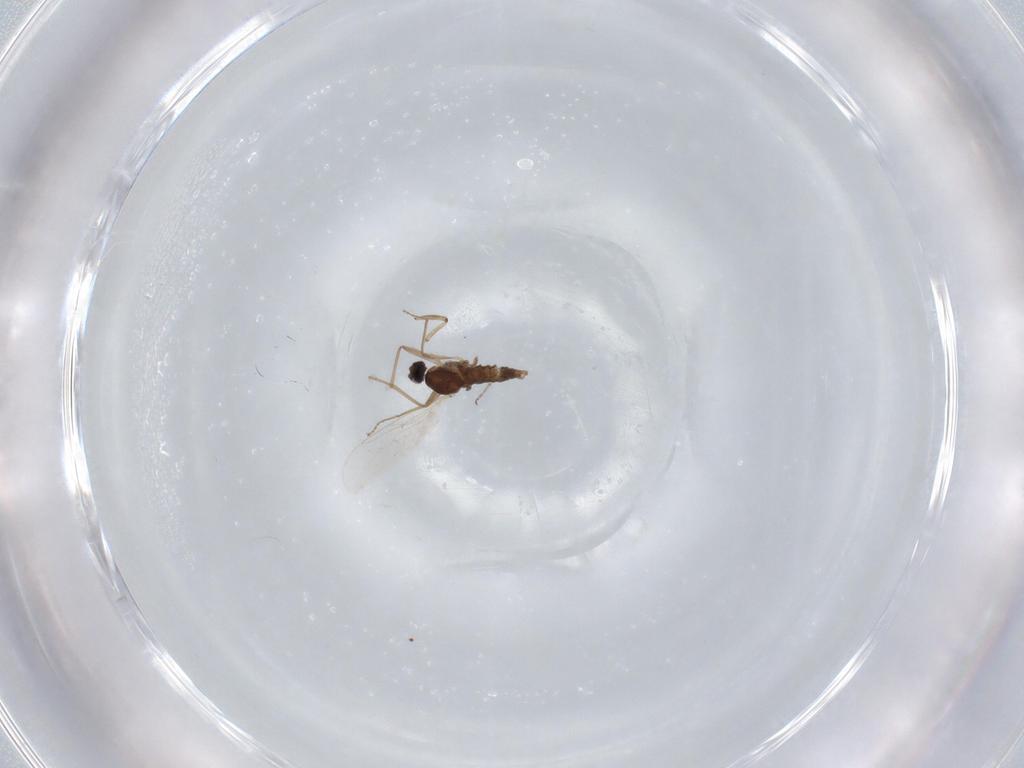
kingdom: Animalia
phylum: Arthropoda
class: Insecta
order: Diptera
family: Cecidomyiidae
